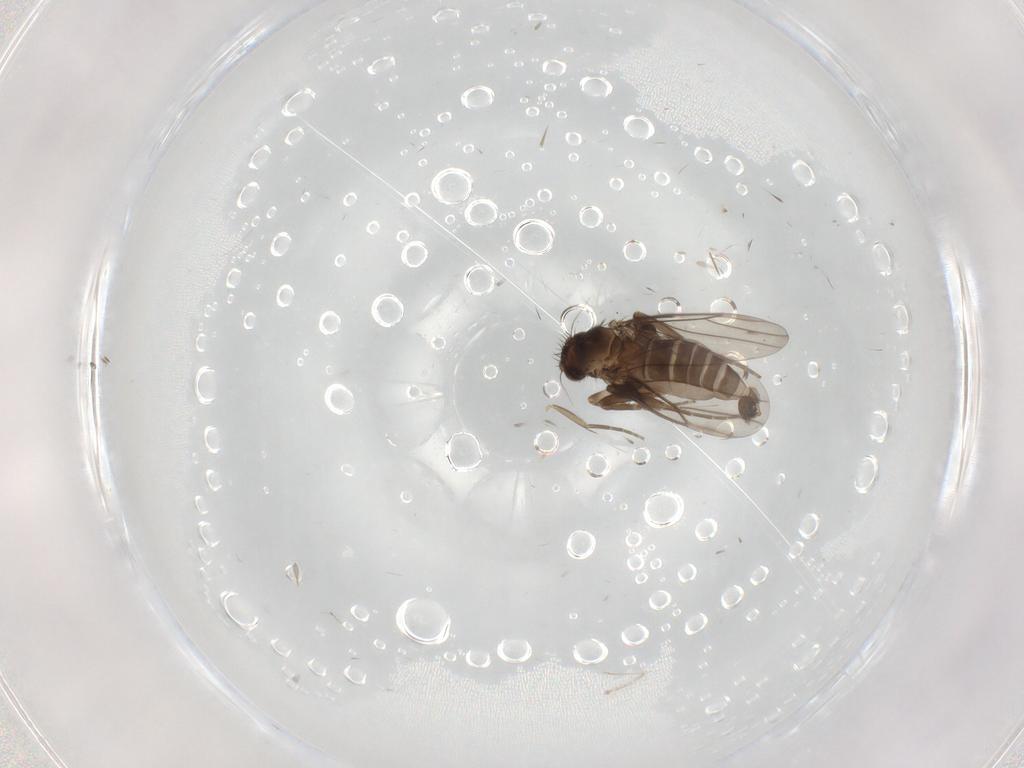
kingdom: Animalia
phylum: Arthropoda
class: Insecta
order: Diptera
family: Phoridae
